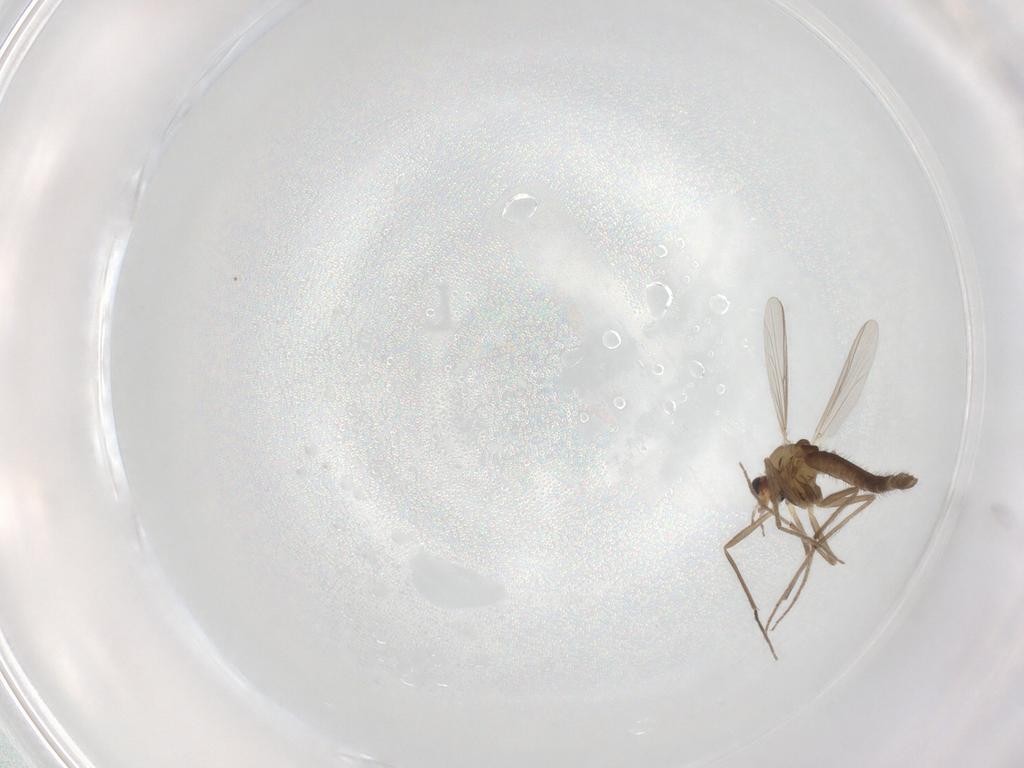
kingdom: Animalia
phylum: Arthropoda
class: Insecta
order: Diptera
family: Chironomidae
